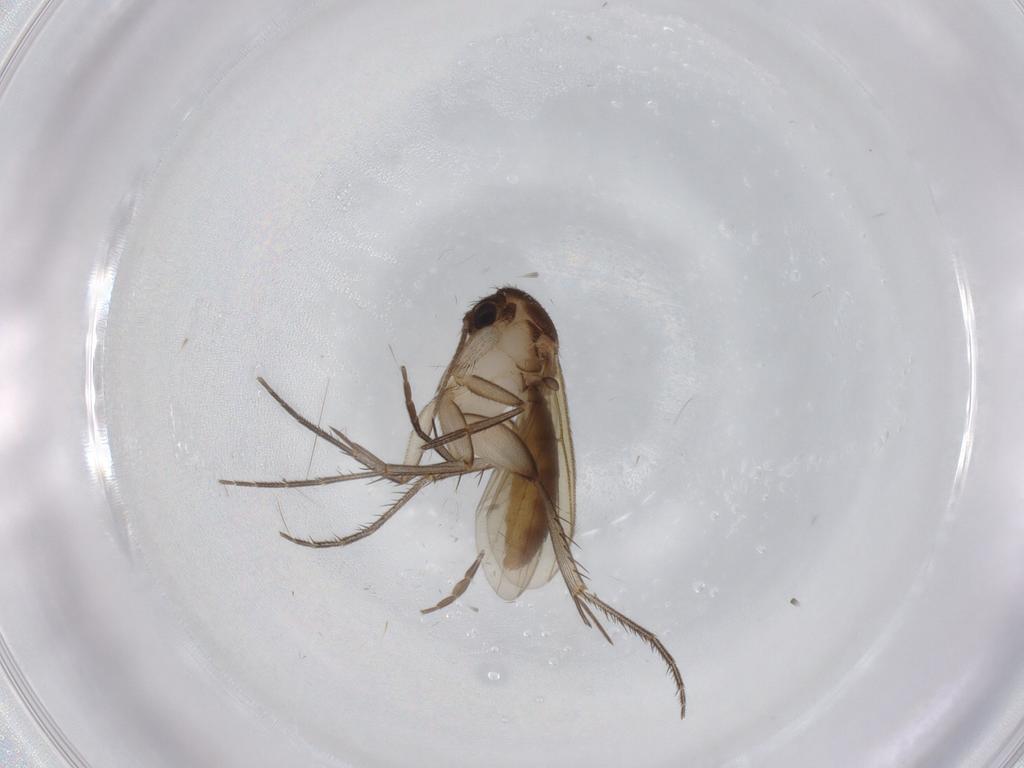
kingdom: Animalia
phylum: Arthropoda
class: Insecta
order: Diptera
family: Mycetophilidae
